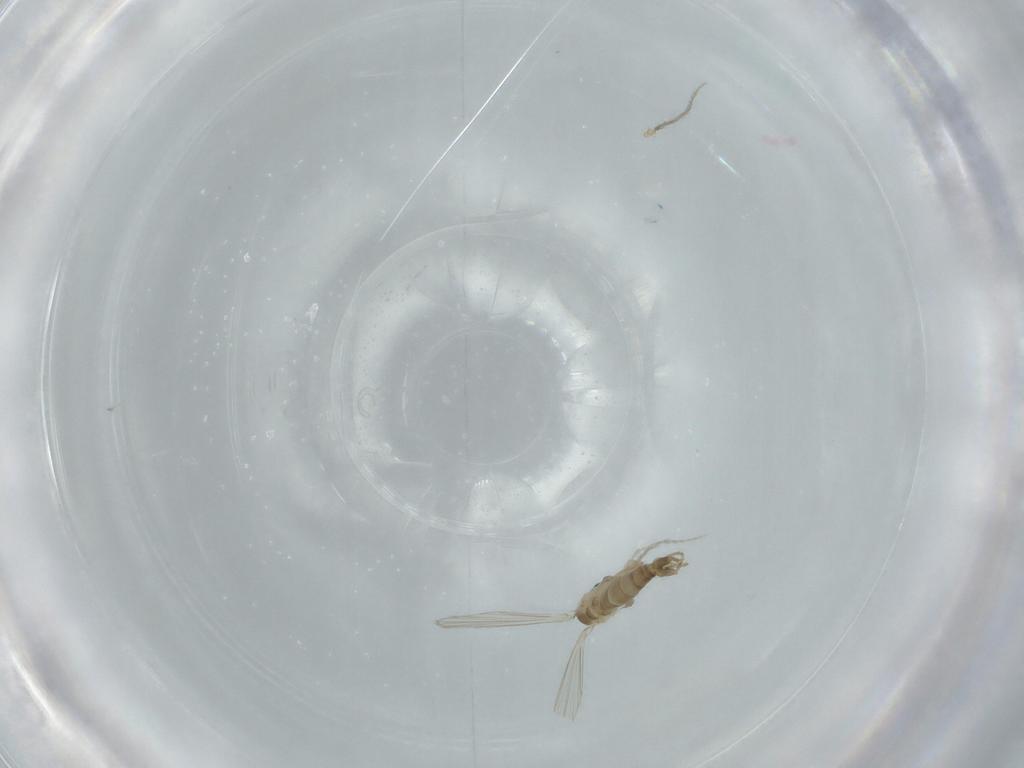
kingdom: Animalia
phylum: Arthropoda
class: Insecta
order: Diptera
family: Psychodidae
